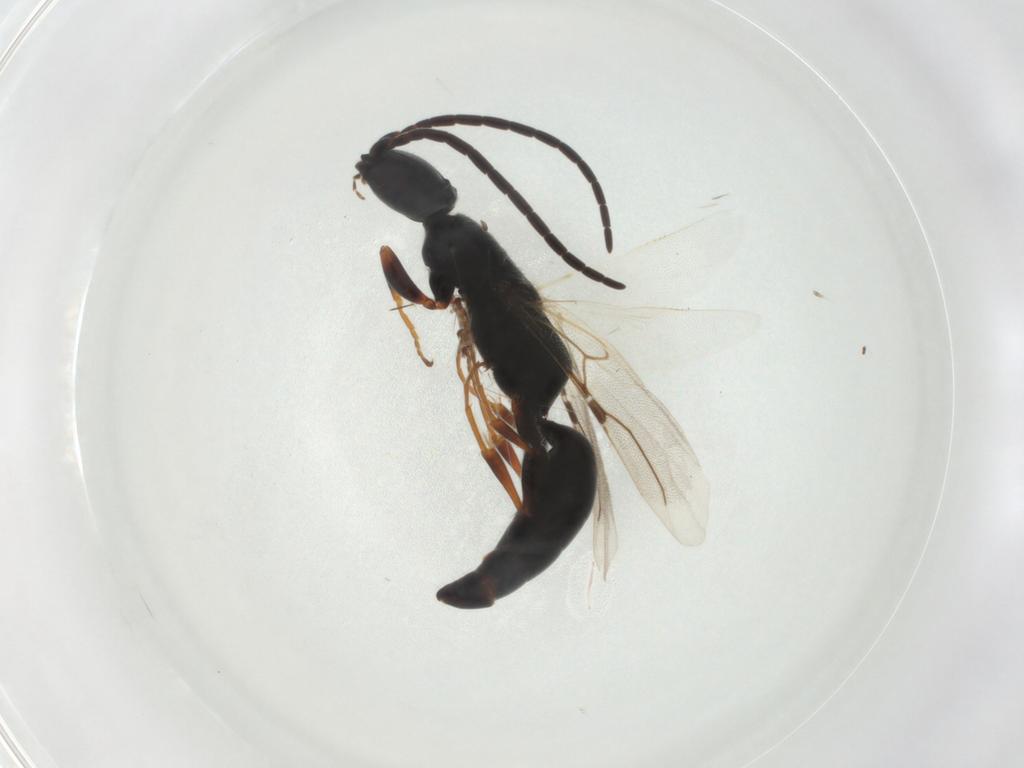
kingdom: Animalia
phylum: Arthropoda
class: Insecta
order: Hymenoptera
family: Bethylidae
